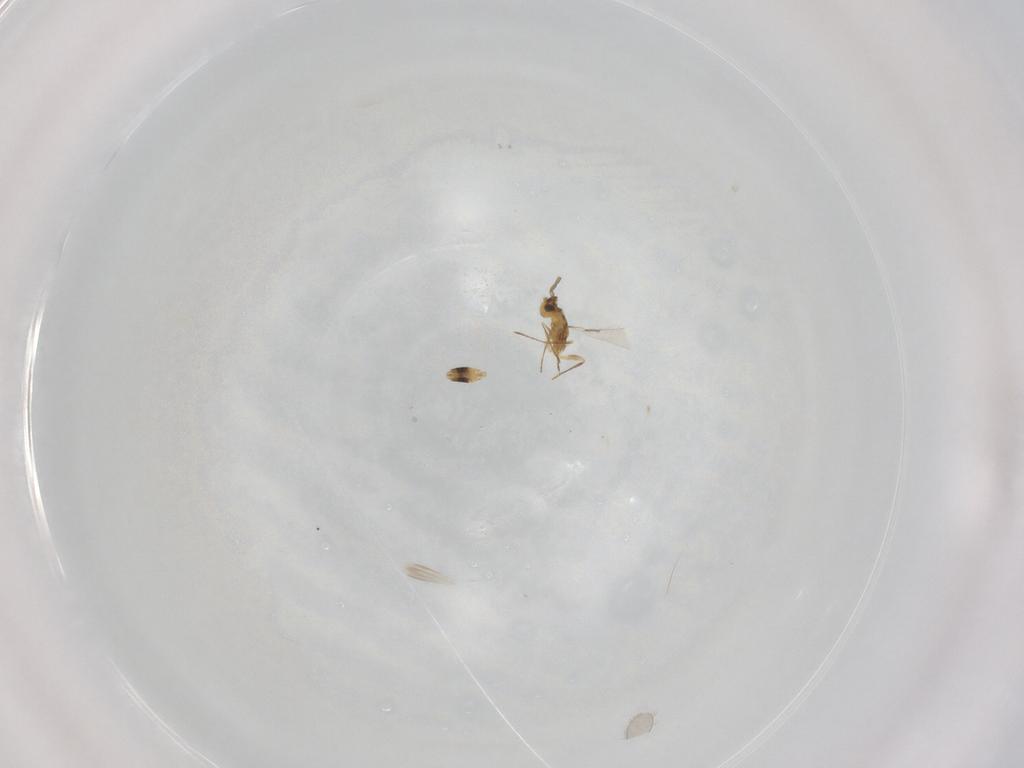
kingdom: Animalia
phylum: Arthropoda
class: Insecta
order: Hymenoptera
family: Mymaridae
